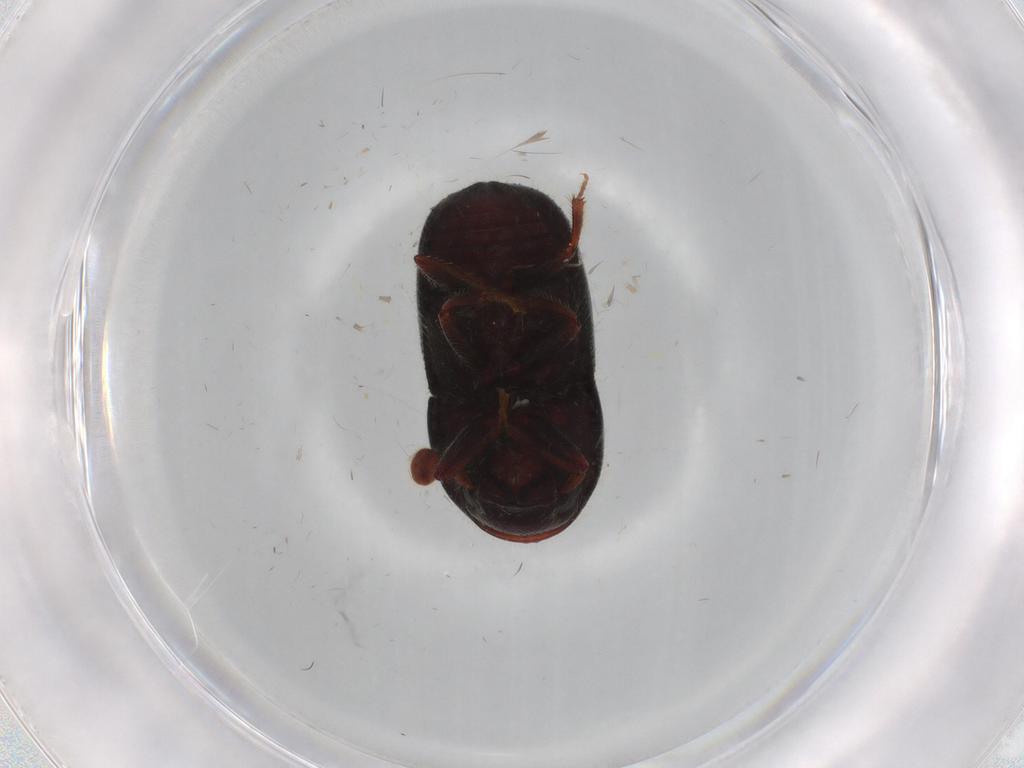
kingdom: Animalia
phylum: Arthropoda
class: Insecta
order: Coleoptera
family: Curculionidae
